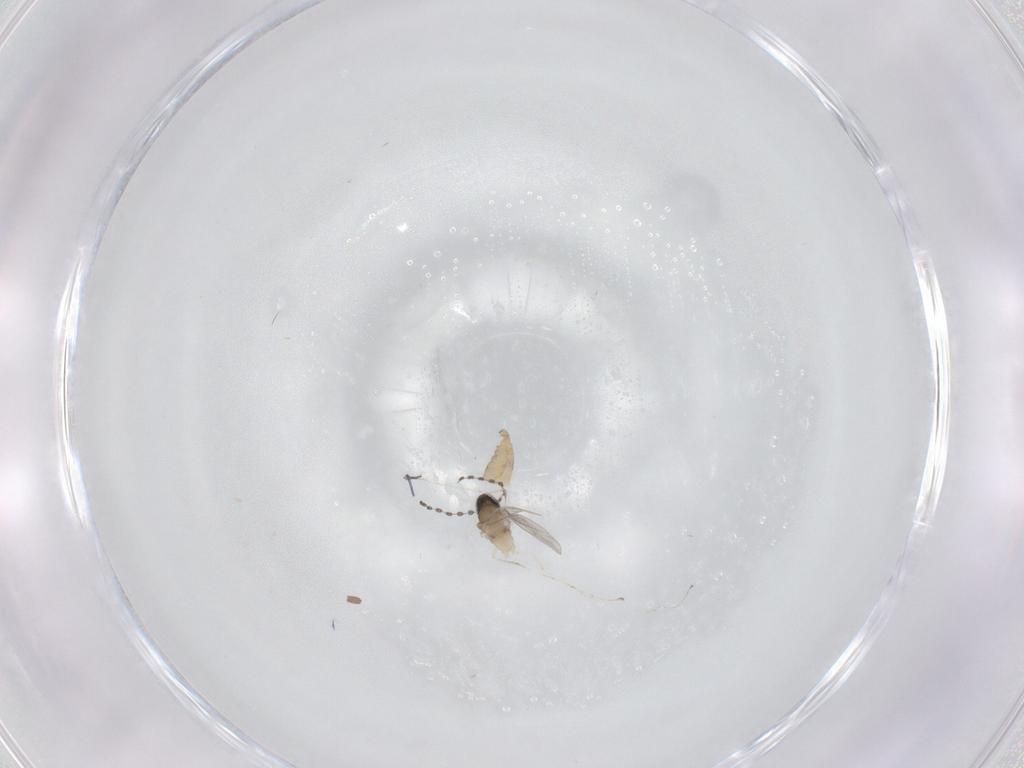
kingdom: Animalia
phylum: Arthropoda
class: Insecta
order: Diptera
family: Cecidomyiidae
